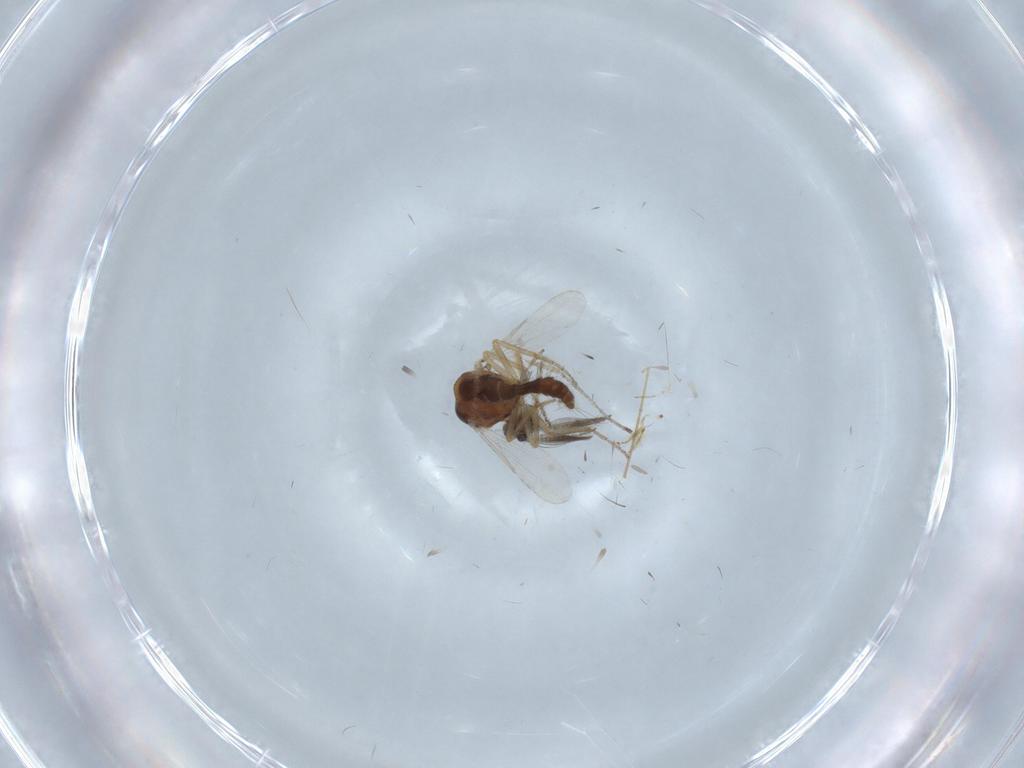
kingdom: Animalia
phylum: Arthropoda
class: Insecta
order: Diptera
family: Ceratopogonidae
